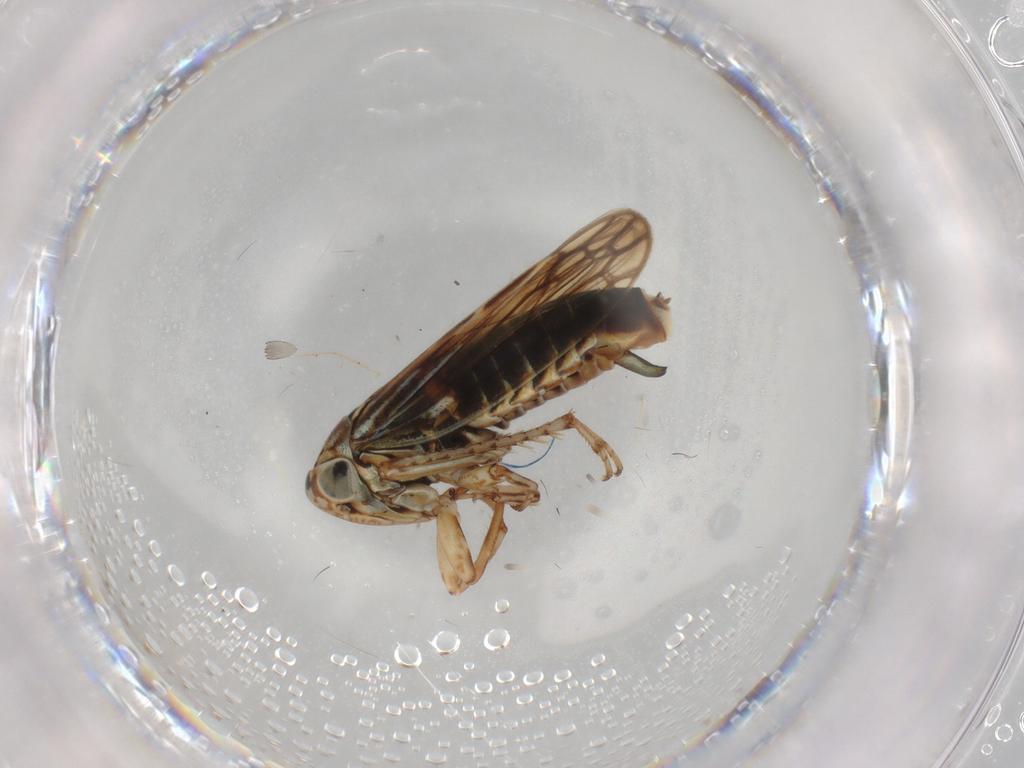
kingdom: Animalia
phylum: Arthropoda
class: Insecta
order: Hemiptera
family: Cicadellidae
